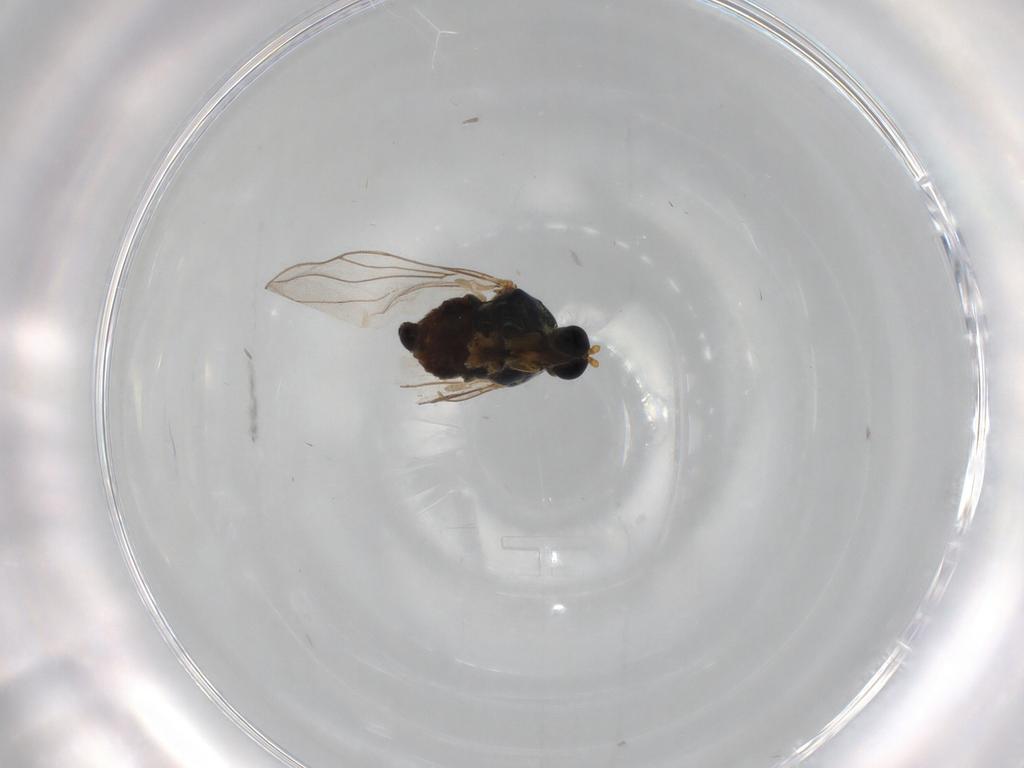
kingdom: Animalia
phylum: Arthropoda
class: Insecta
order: Diptera
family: Hybotidae
